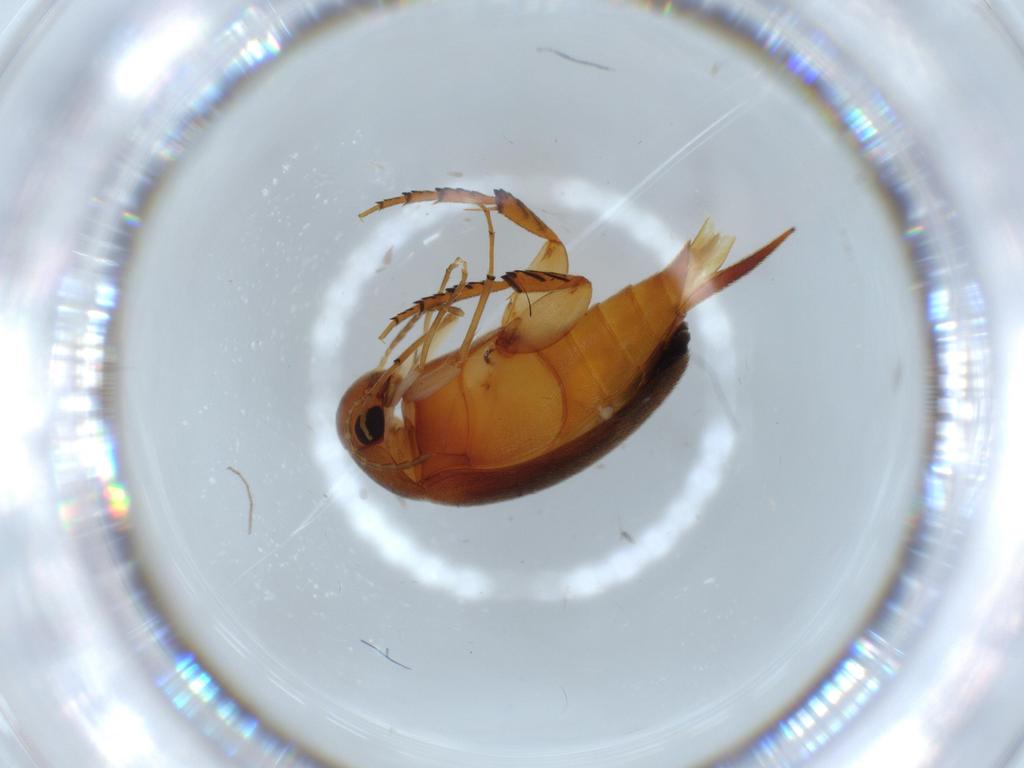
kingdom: Animalia
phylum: Arthropoda
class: Insecta
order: Coleoptera
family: Mordellidae
